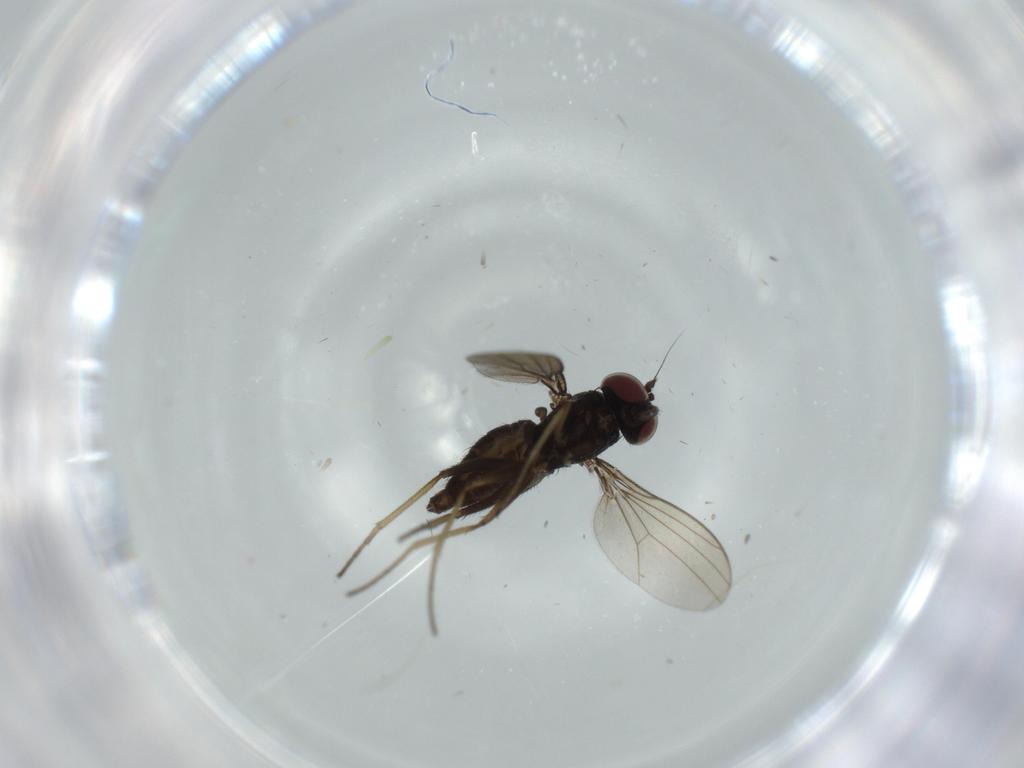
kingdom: Animalia
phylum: Arthropoda
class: Insecta
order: Diptera
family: Dolichopodidae
